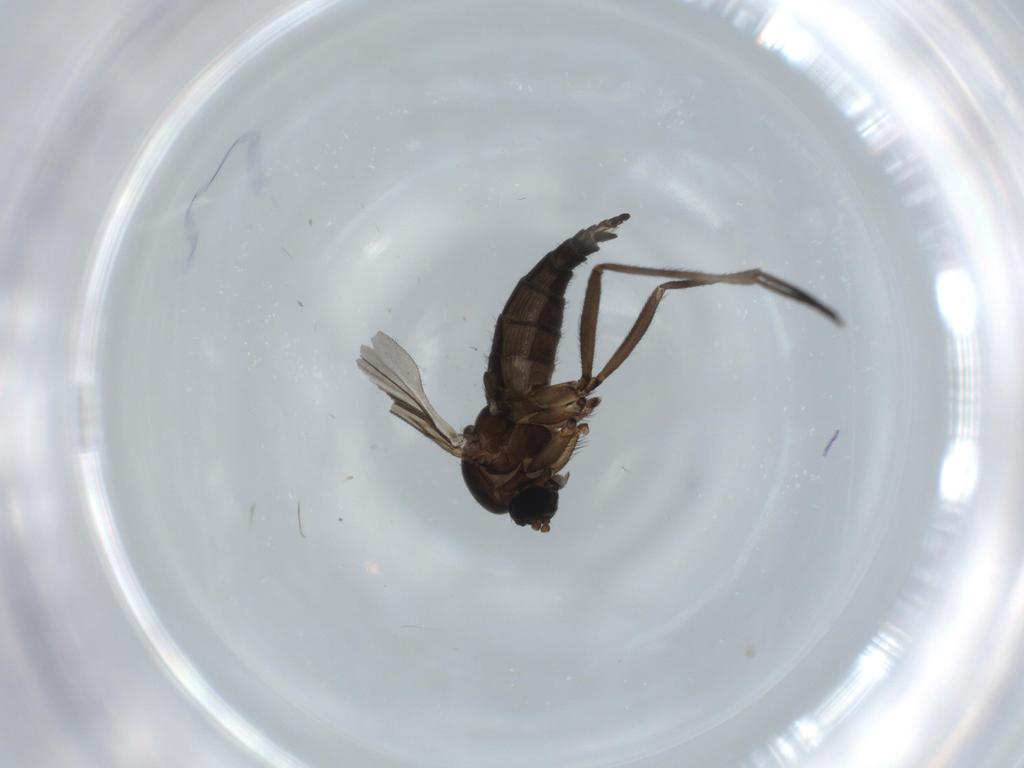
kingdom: Animalia
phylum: Arthropoda
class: Insecta
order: Diptera
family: Sciaridae
